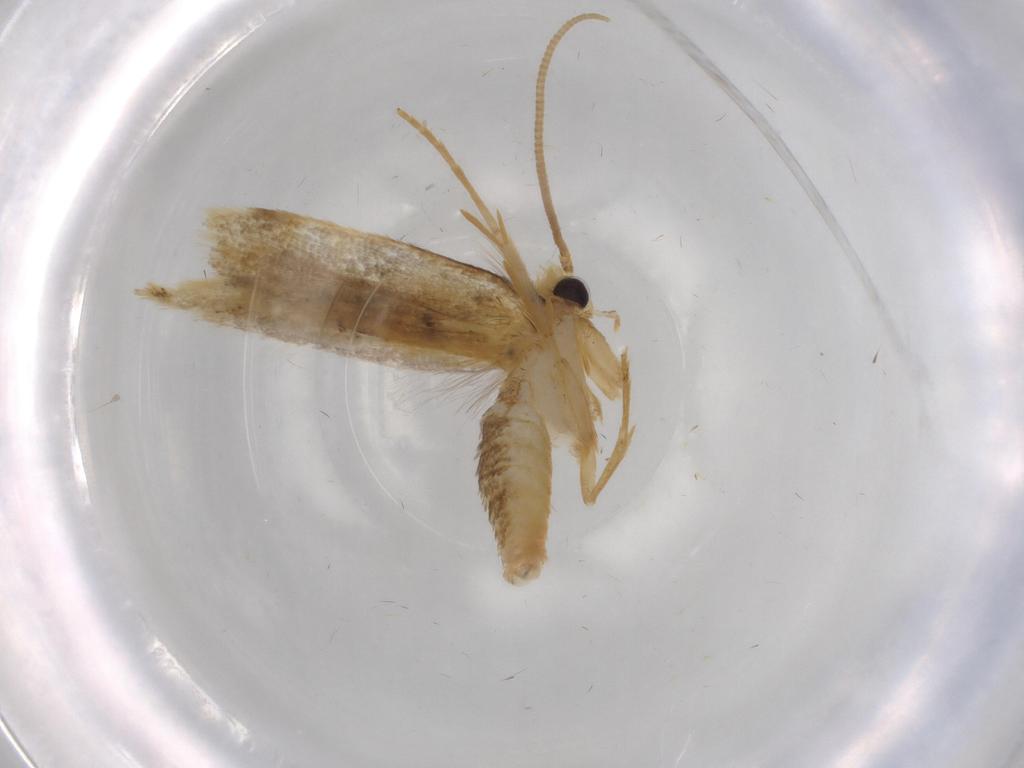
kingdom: Animalia
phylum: Arthropoda
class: Insecta
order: Lepidoptera
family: Tineidae
